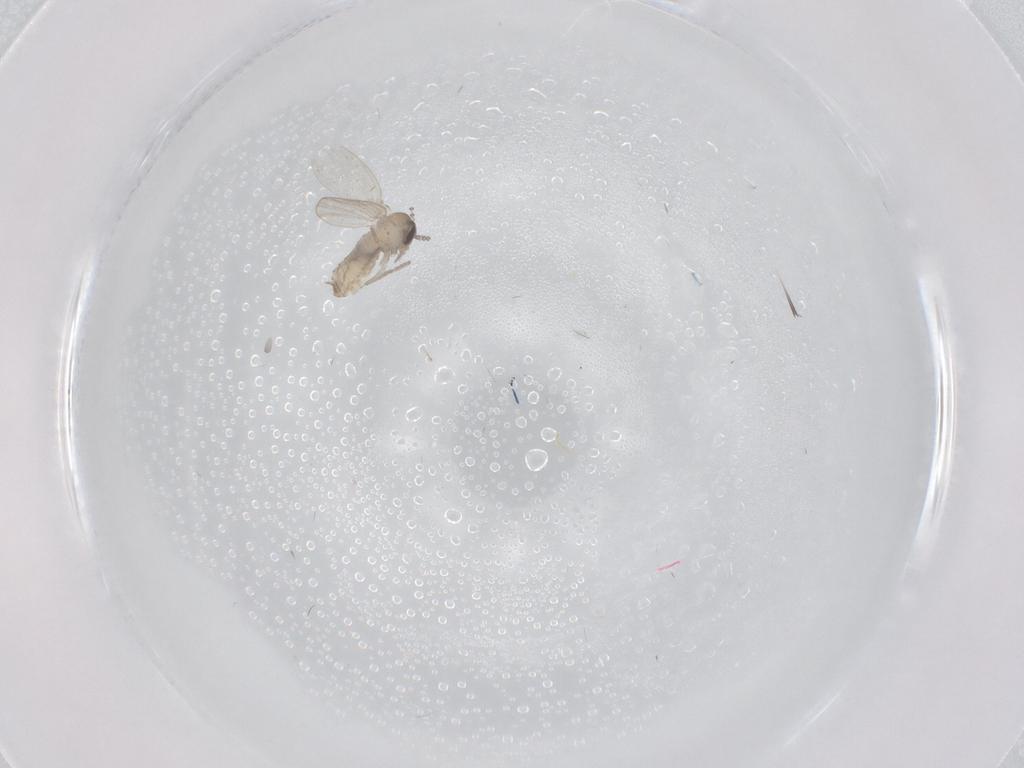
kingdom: Animalia
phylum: Arthropoda
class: Insecta
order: Diptera
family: Psychodidae
